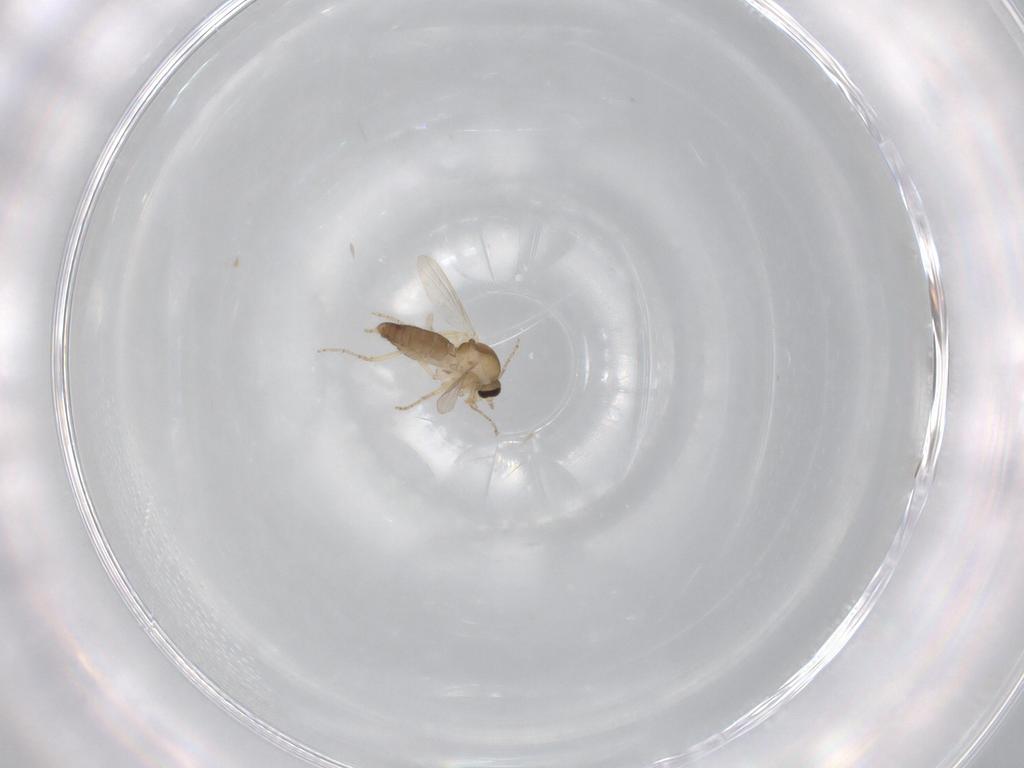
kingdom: Animalia
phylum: Arthropoda
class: Insecta
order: Diptera
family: Ceratopogonidae
